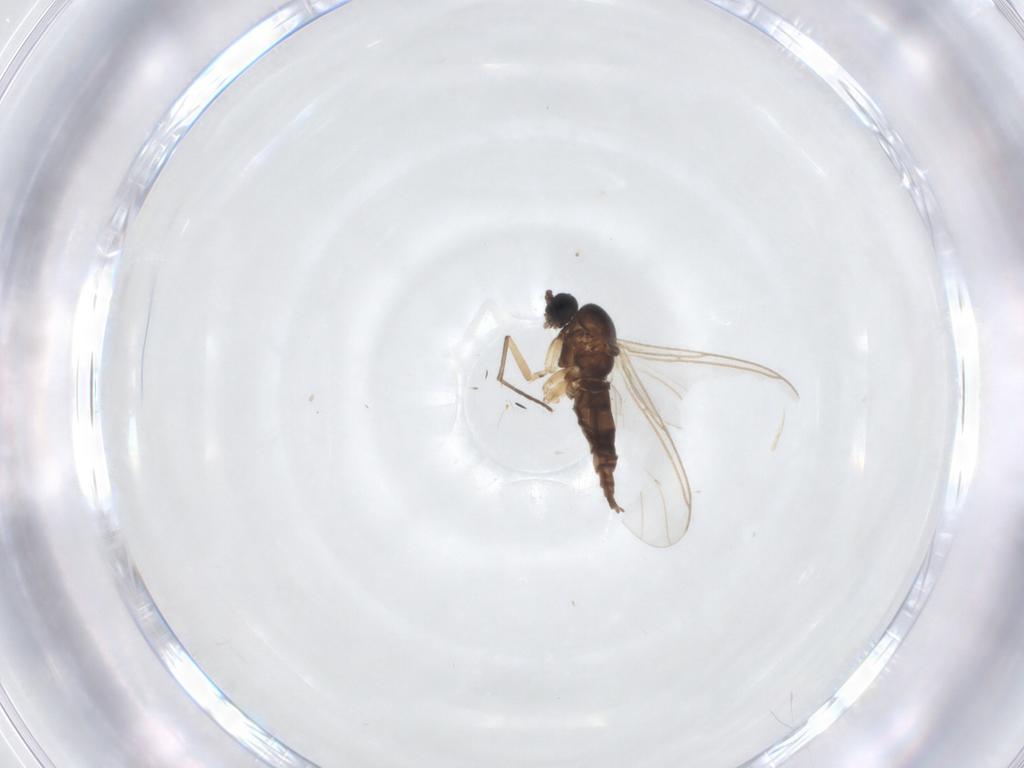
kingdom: Animalia
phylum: Arthropoda
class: Insecta
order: Diptera
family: Sciaridae
